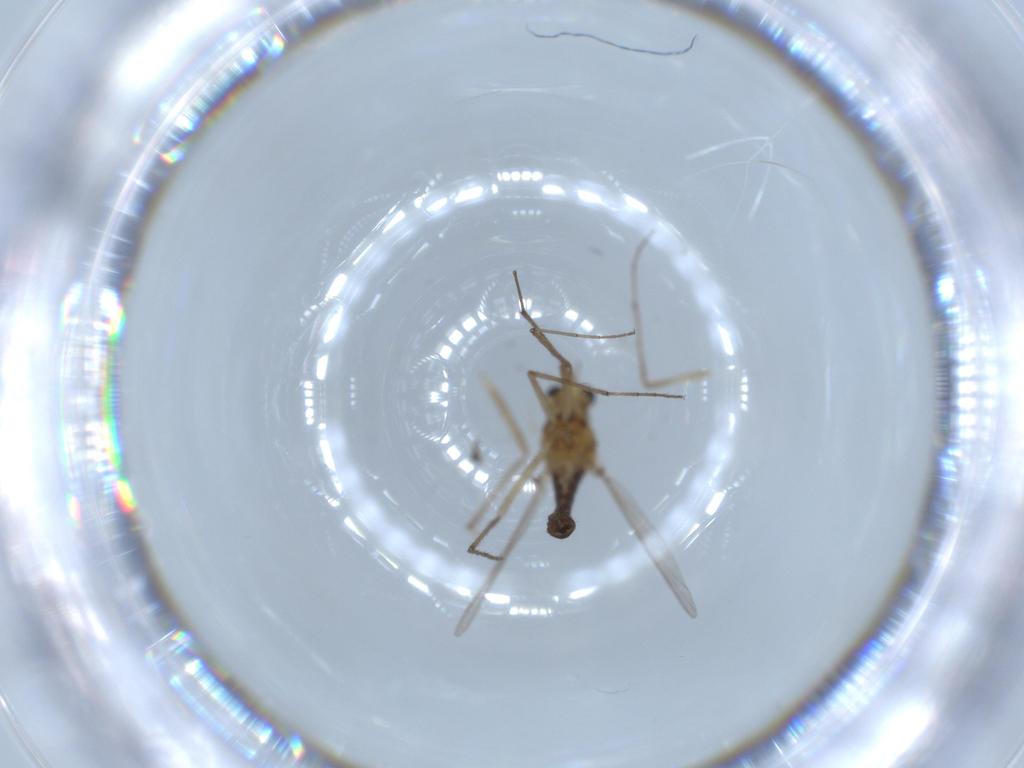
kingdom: Animalia
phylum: Arthropoda
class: Insecta
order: Diptera
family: Chironomidae
